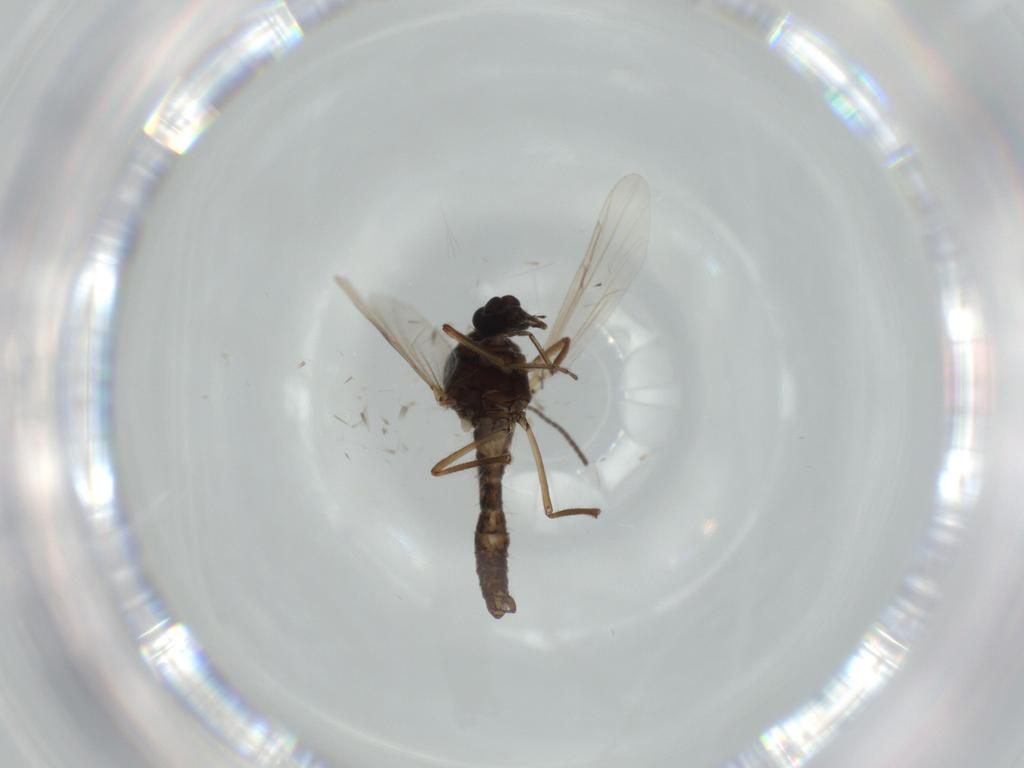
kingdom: Animalia
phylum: Arthropoda
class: Insecta
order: Diptera
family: Ceratopogonidae
